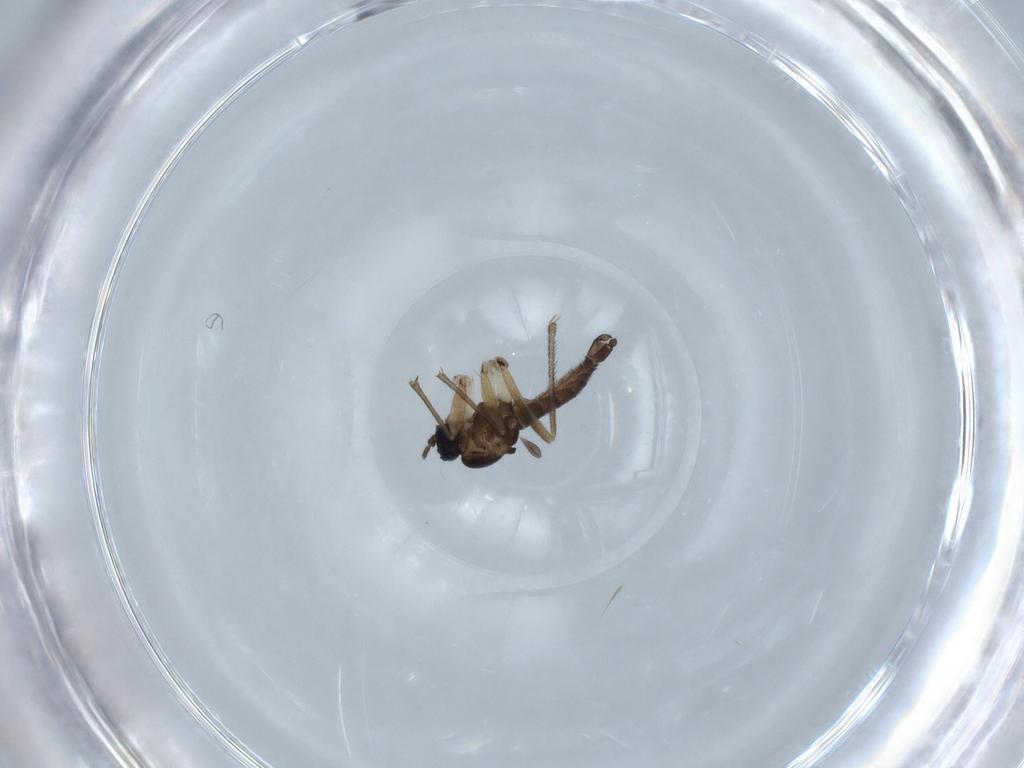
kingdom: Animalia
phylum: Arthropoda
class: Insecta
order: Diptera
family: Sciaridae
